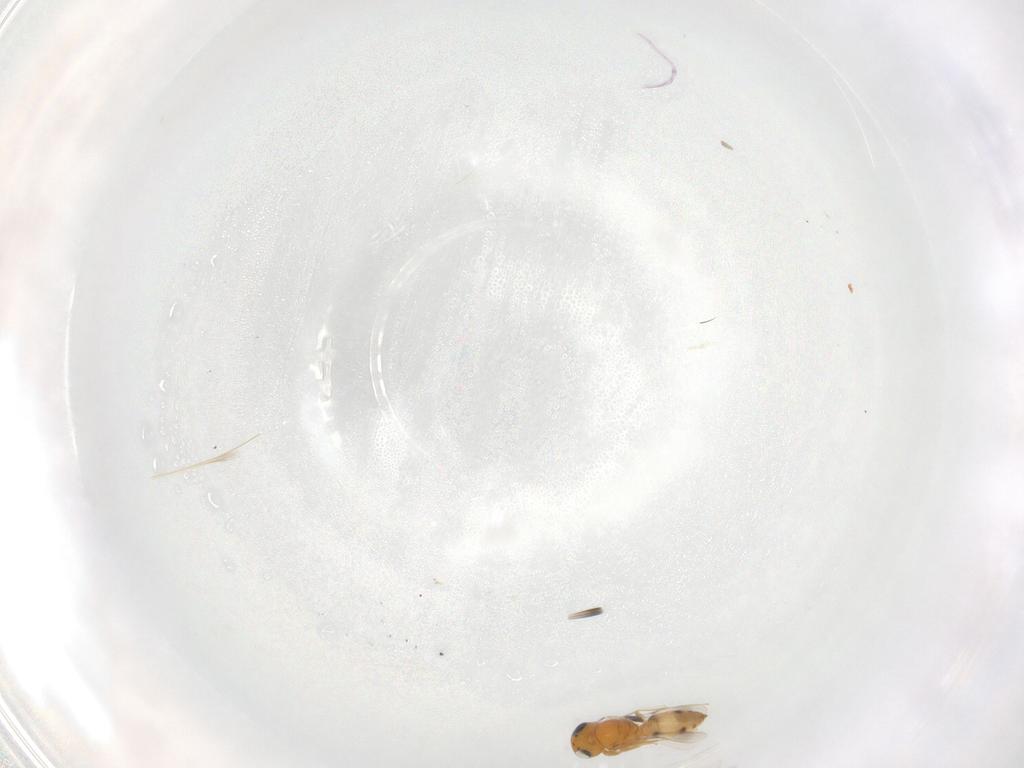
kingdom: Animalia
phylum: Arthropoda
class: Insecta
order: Hymenoptera
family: Scelionidae
